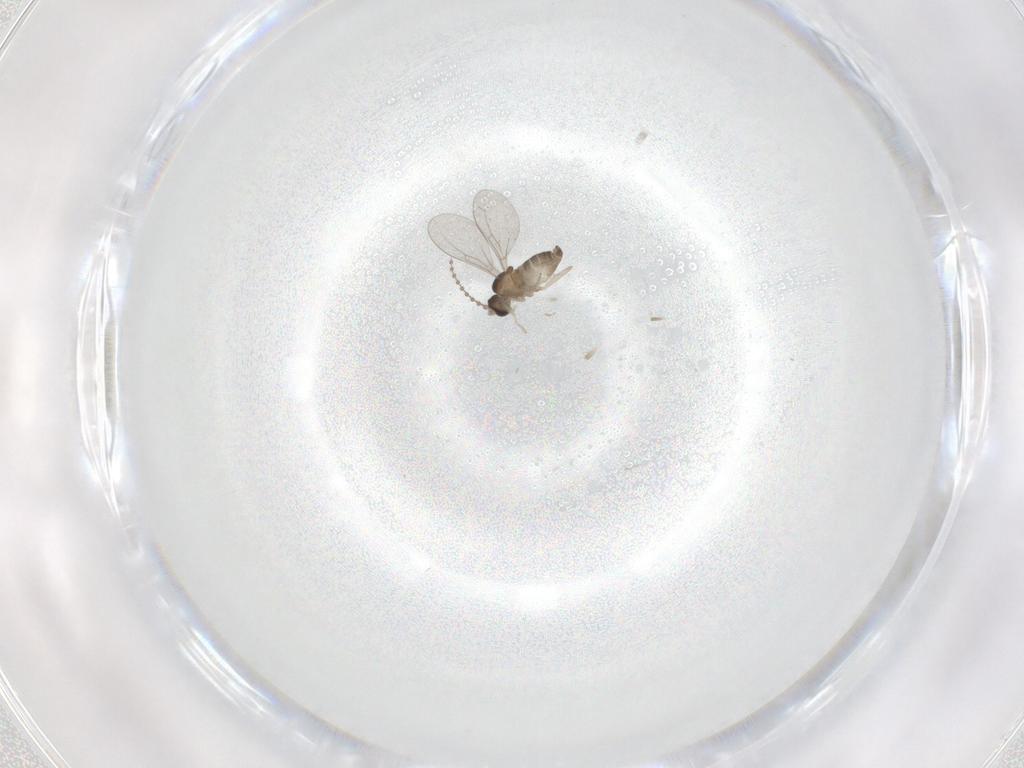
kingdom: Animalia
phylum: Arthropoda
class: Insecta
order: Diptera
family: Cecidomyiidae
